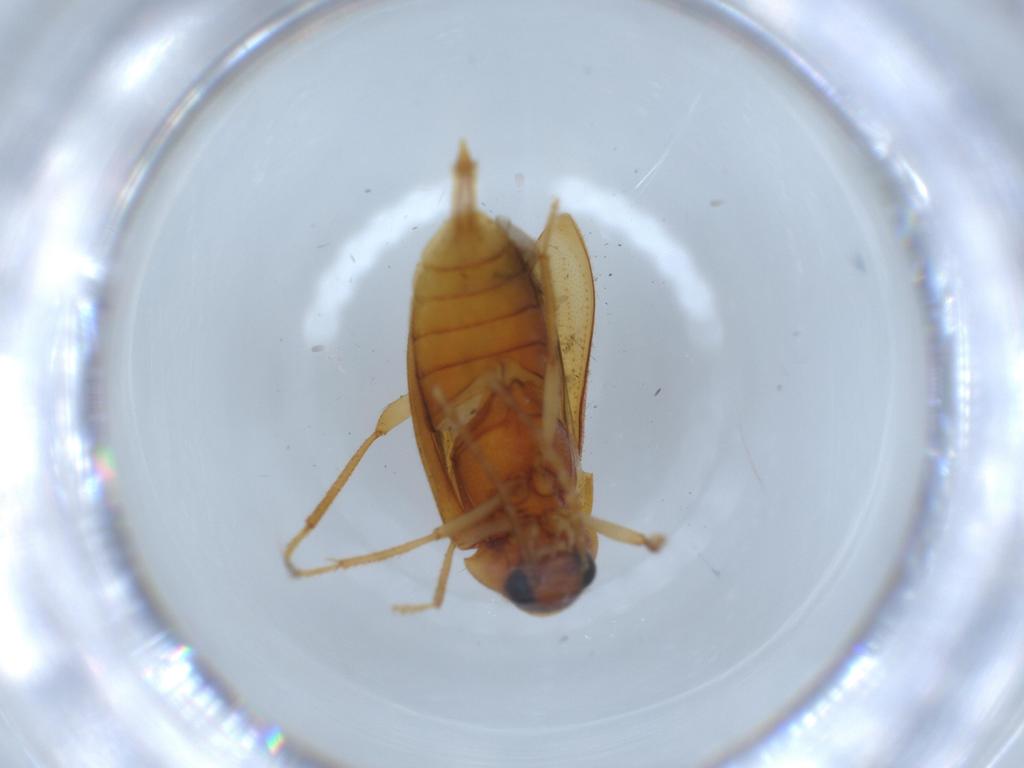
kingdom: Animalia
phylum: Arthropoda
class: Insecta
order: Coleoptera
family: Ptilodactylidae
